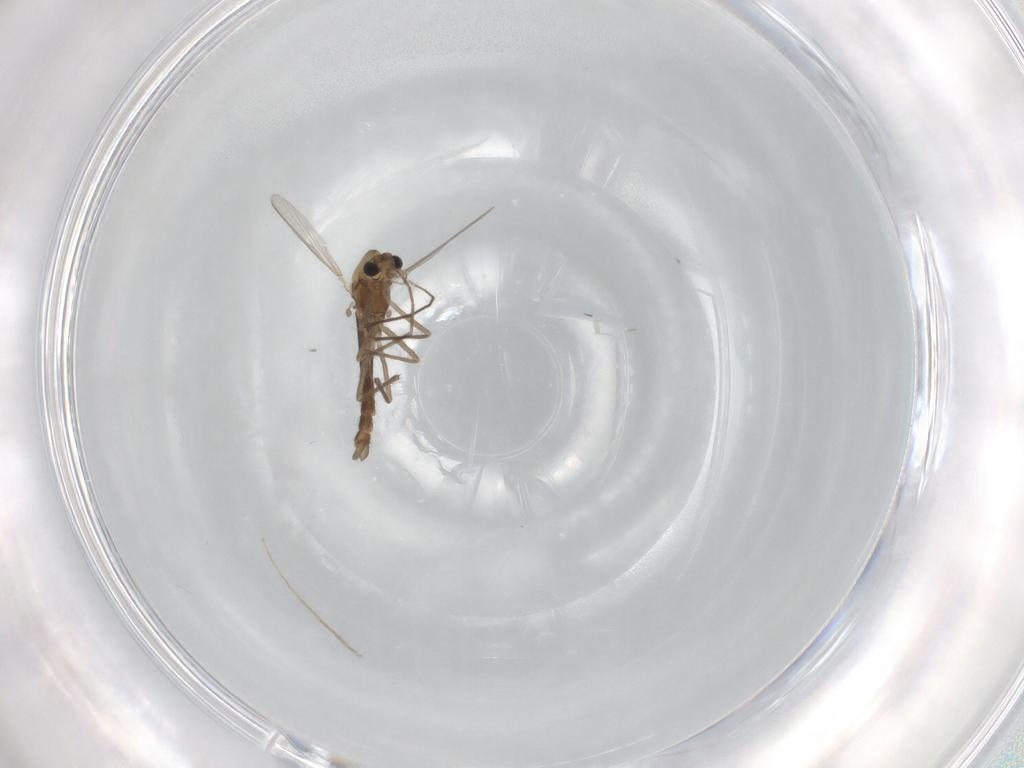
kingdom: Animalia
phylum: Arthropoda
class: Insecta
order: Diptera
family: Chironomidae
